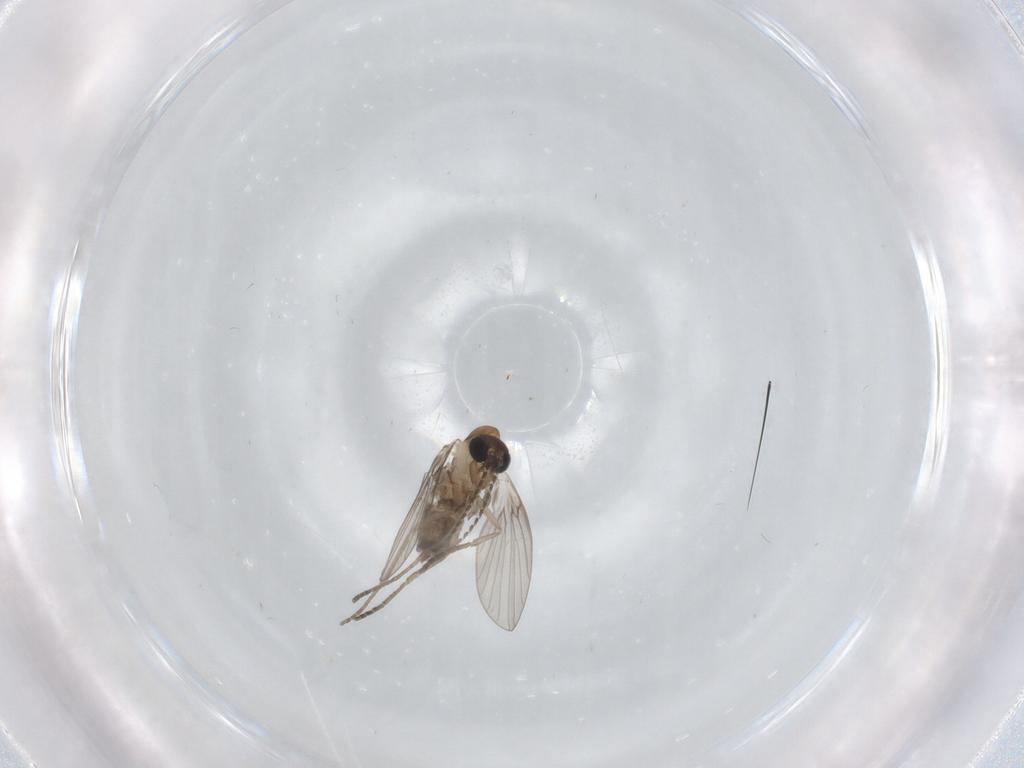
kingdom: Animalia
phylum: Arthropoda
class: Insecta
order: Diptera
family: Psychodidae
